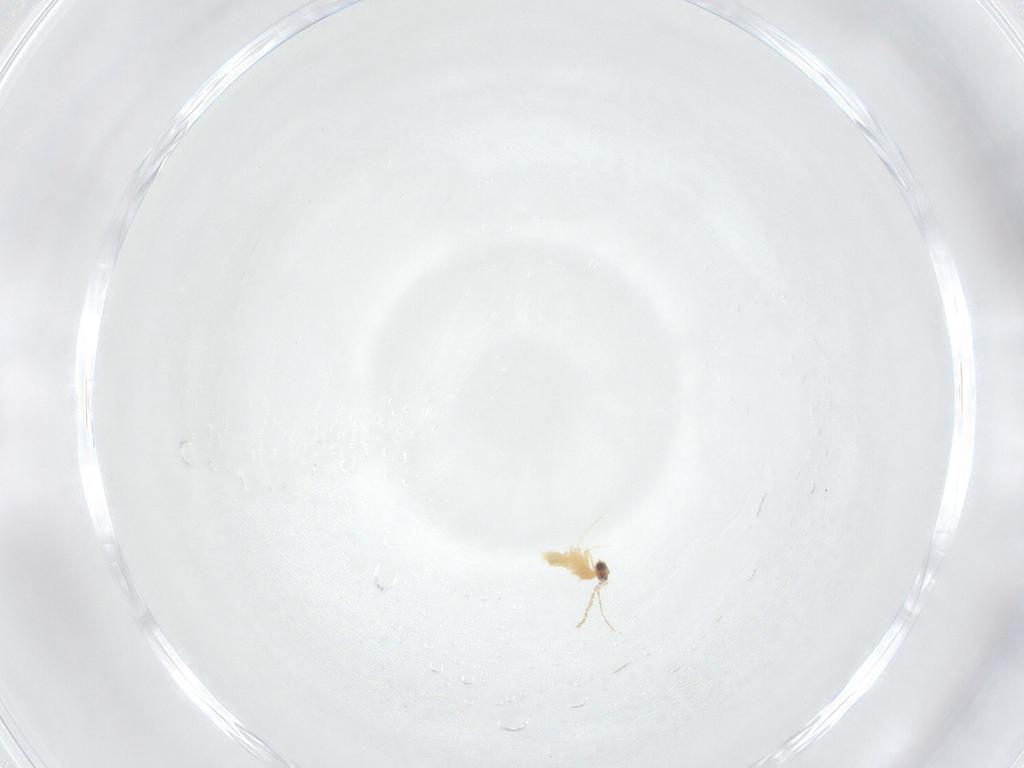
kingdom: Animalia
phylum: Arthropoda
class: Insecta
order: Diptera
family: Cecidomyiidae
